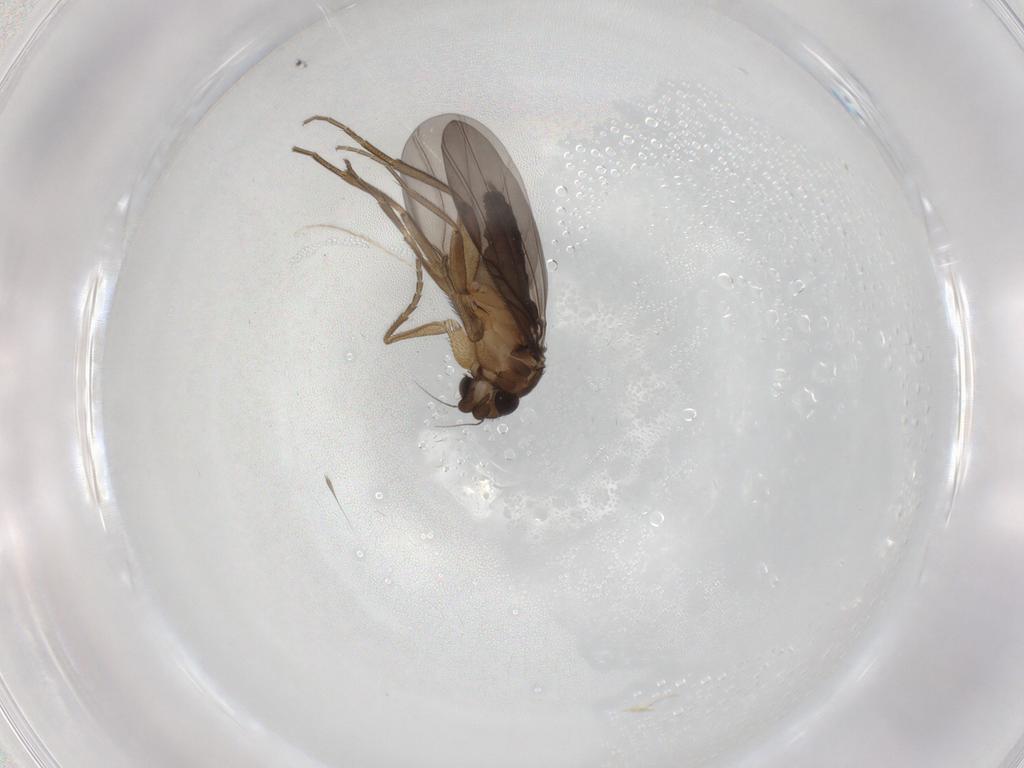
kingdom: Animalia
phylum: Arthropoda
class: Insecta
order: Diptera
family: Phoridae
